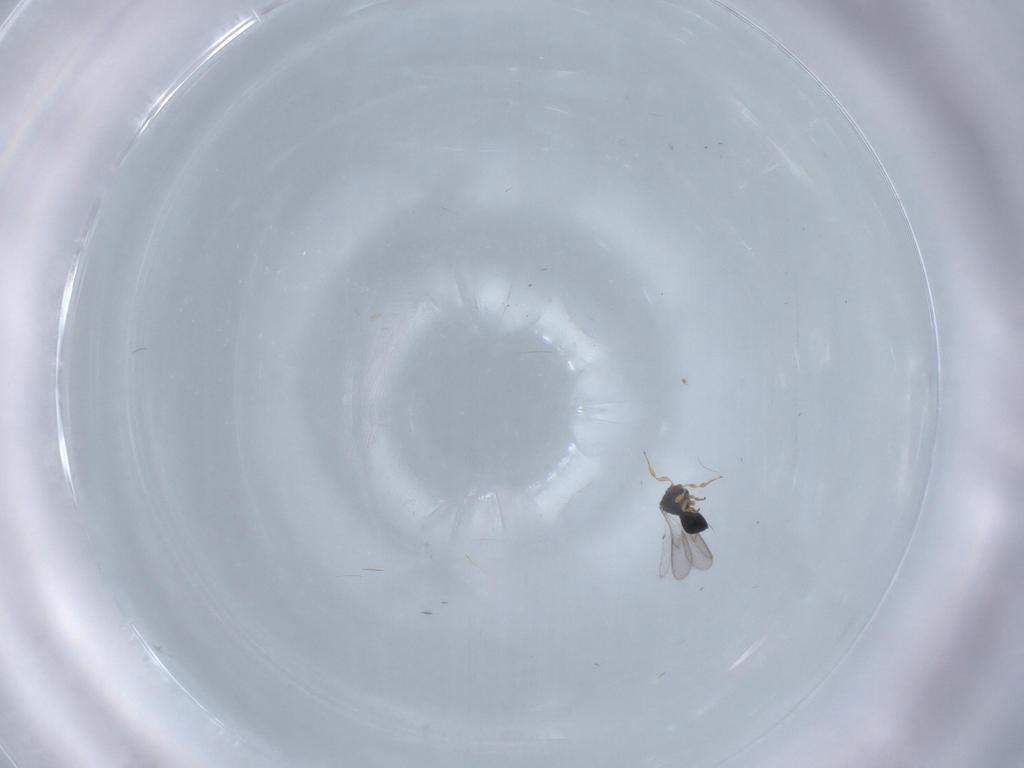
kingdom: Animalia
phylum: Arthropoda
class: Insecta
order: Hymenoptera
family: Scelionidae
